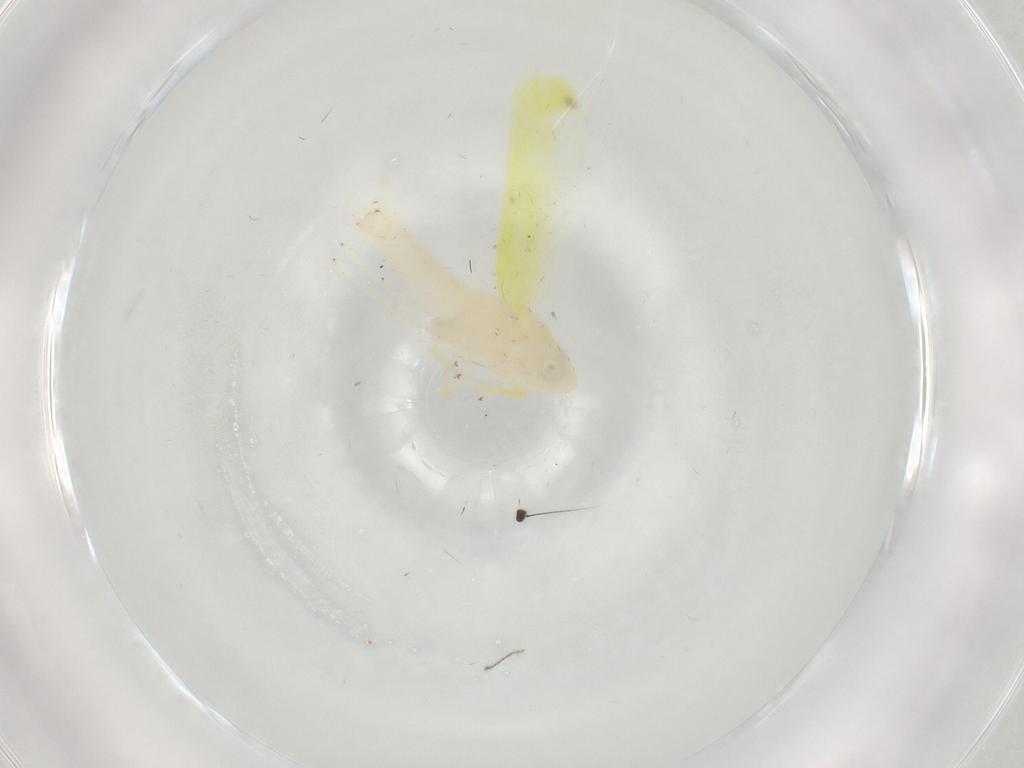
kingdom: Animalia
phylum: Arthropoda
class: Insecta
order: Hemiptera
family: Cicadellidae
